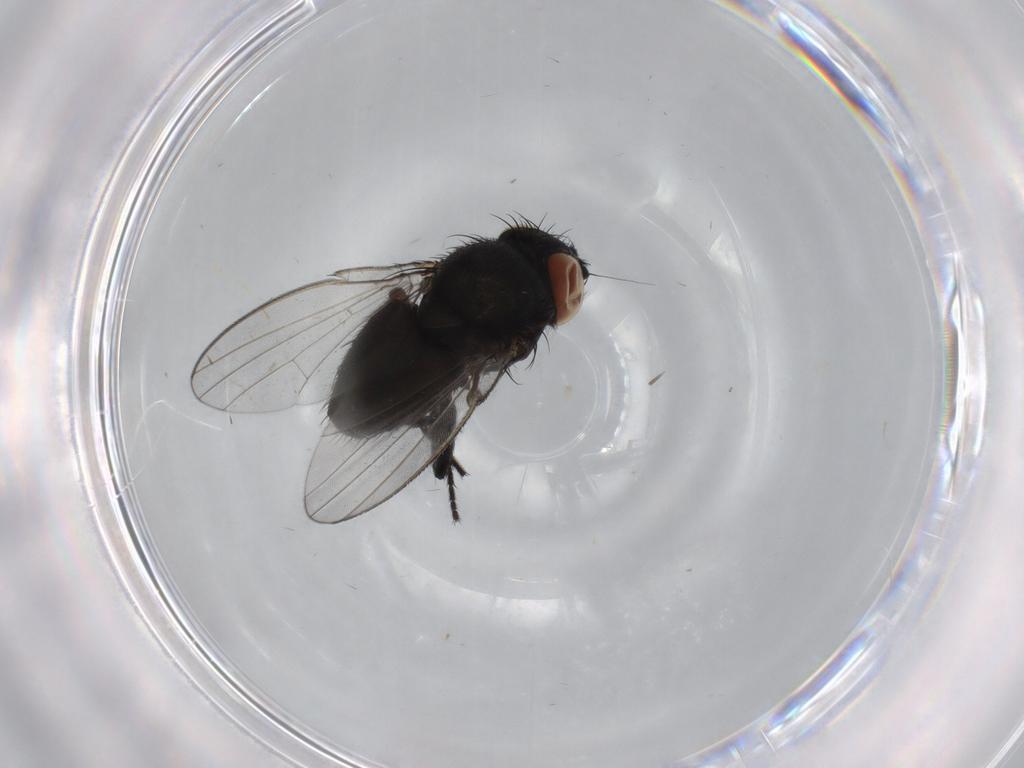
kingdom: Animalia
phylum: Arthropoda
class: Insecta
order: Diptera
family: Milichiidae
